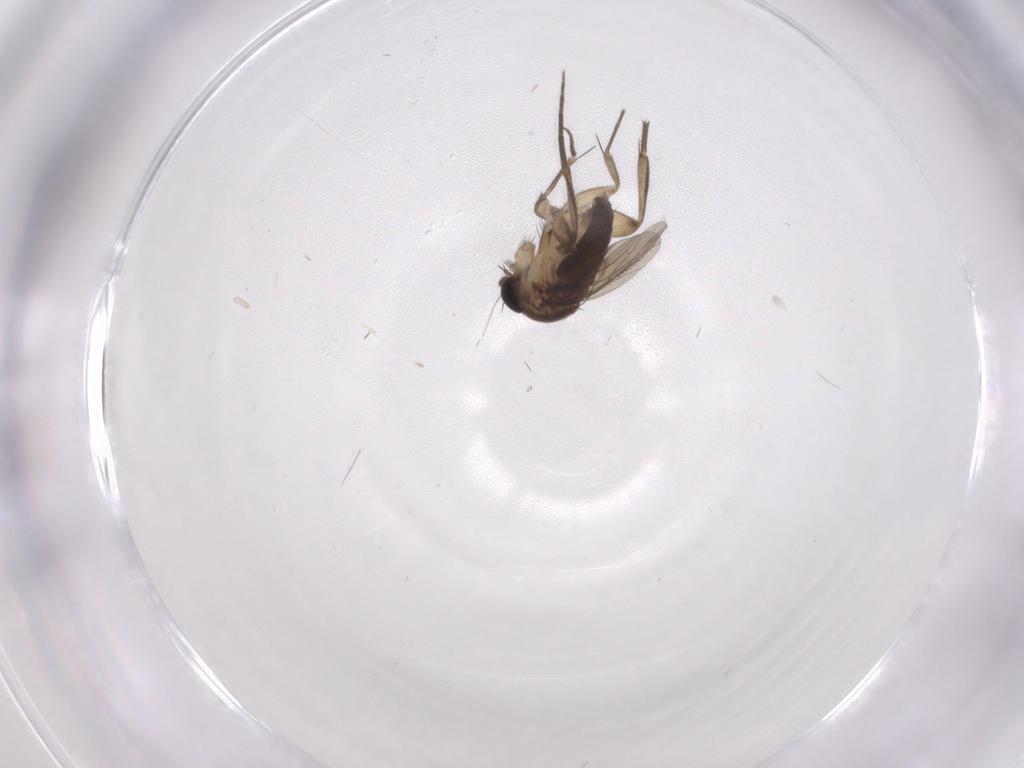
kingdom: Animalia
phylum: Arthropoda
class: Insecta
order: Diptera
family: Phoridae
